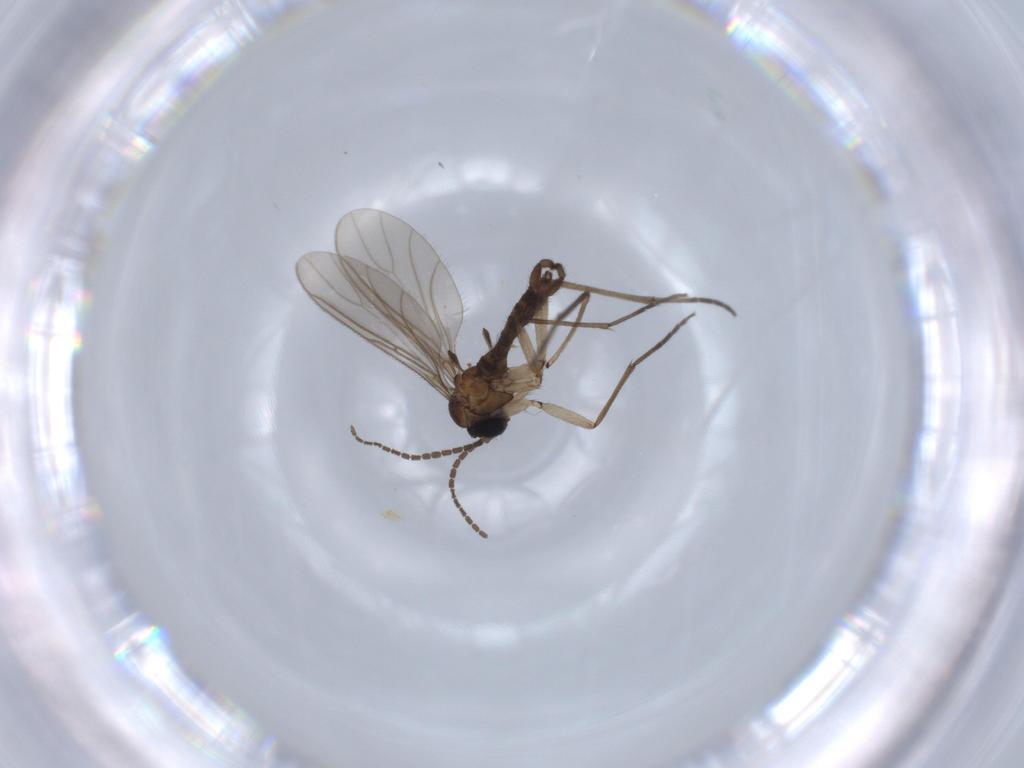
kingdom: Animalia
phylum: Arthropoda
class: Insecta
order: Diptera
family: Sciaridae
